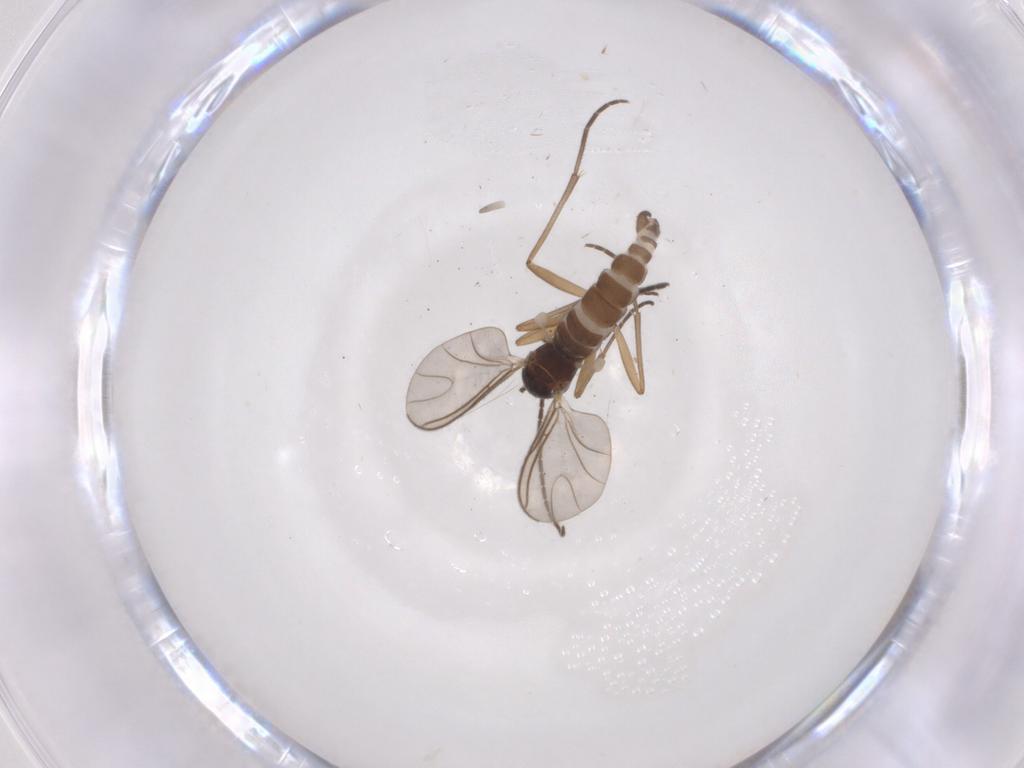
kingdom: Animalia
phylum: Arthropoda
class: Insecta
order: Diptera
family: Sciaridae
